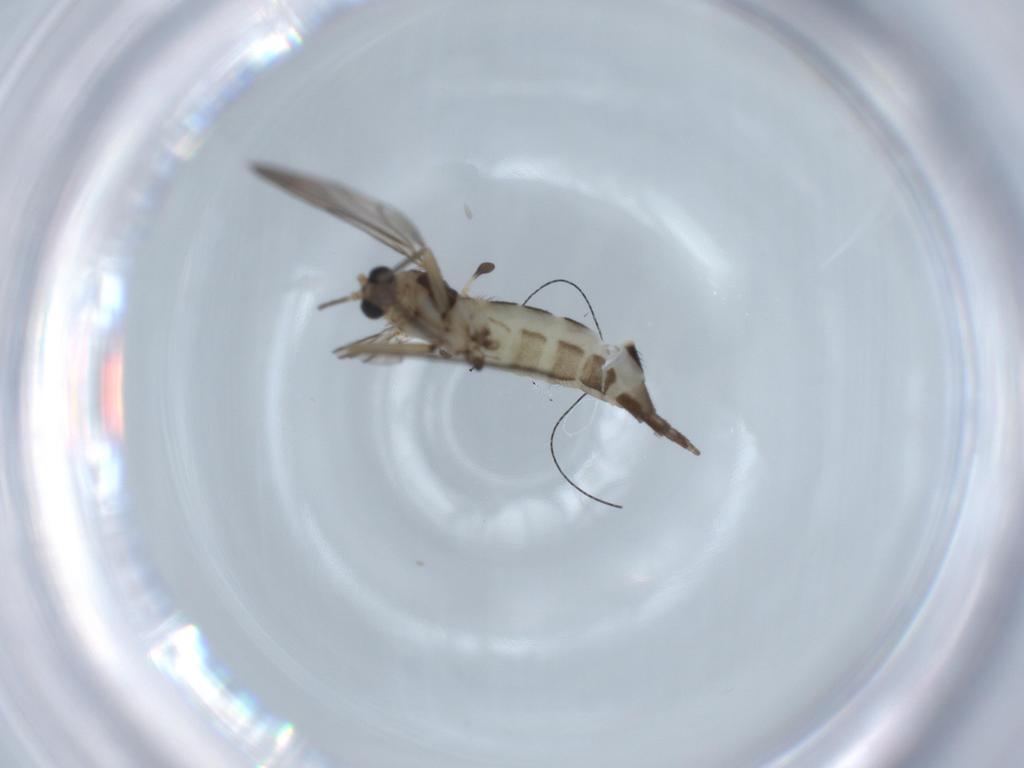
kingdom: Animalia
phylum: Arthropoda
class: Insecta
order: Diptera
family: Sciaridae
